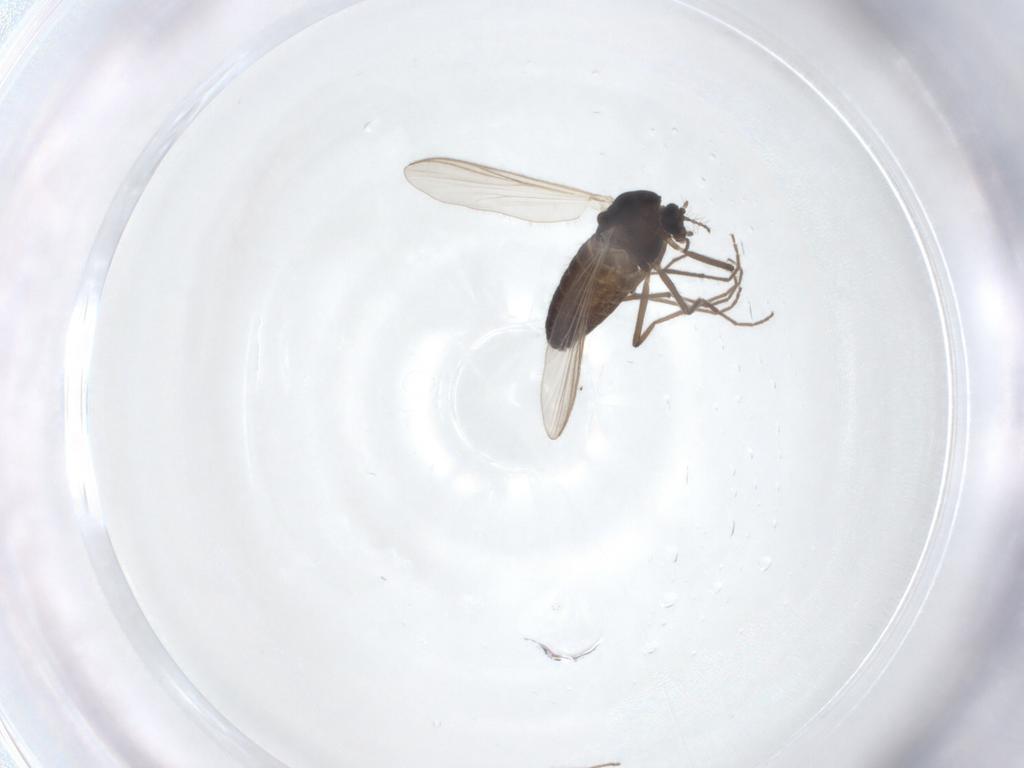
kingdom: Animalia
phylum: Arthropoda
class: Insecta
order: Diptera
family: Chironomidae
